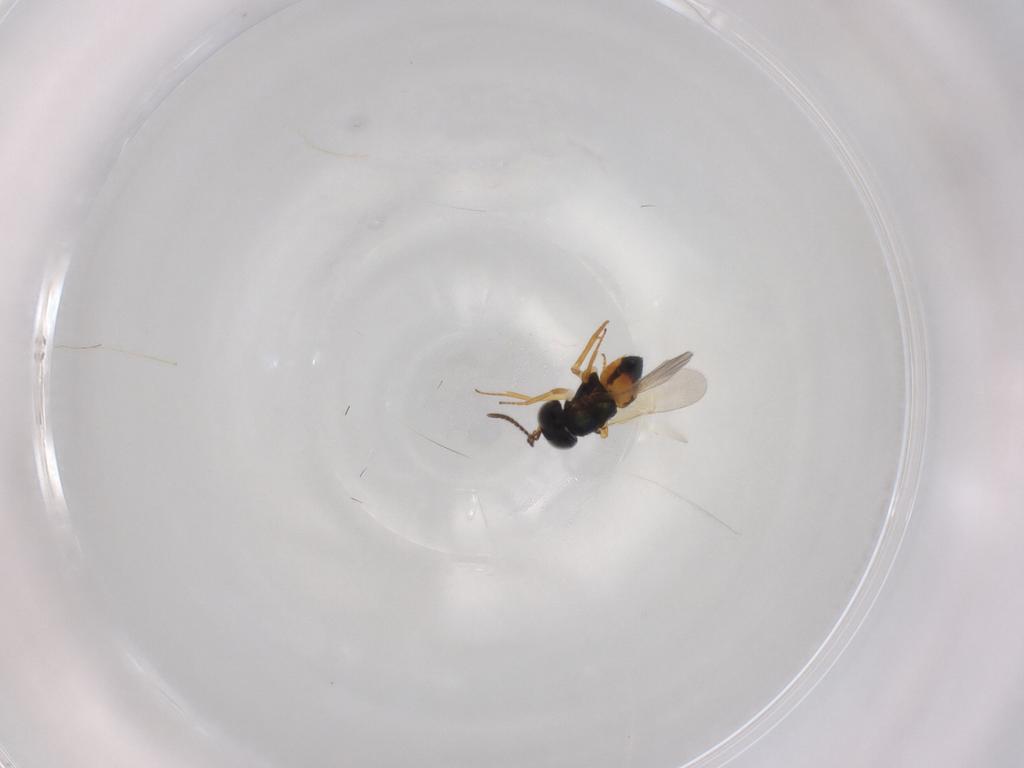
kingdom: Animalia
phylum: Arthropoda
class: Insecta
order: Hymenoptera
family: Encyrtidae
